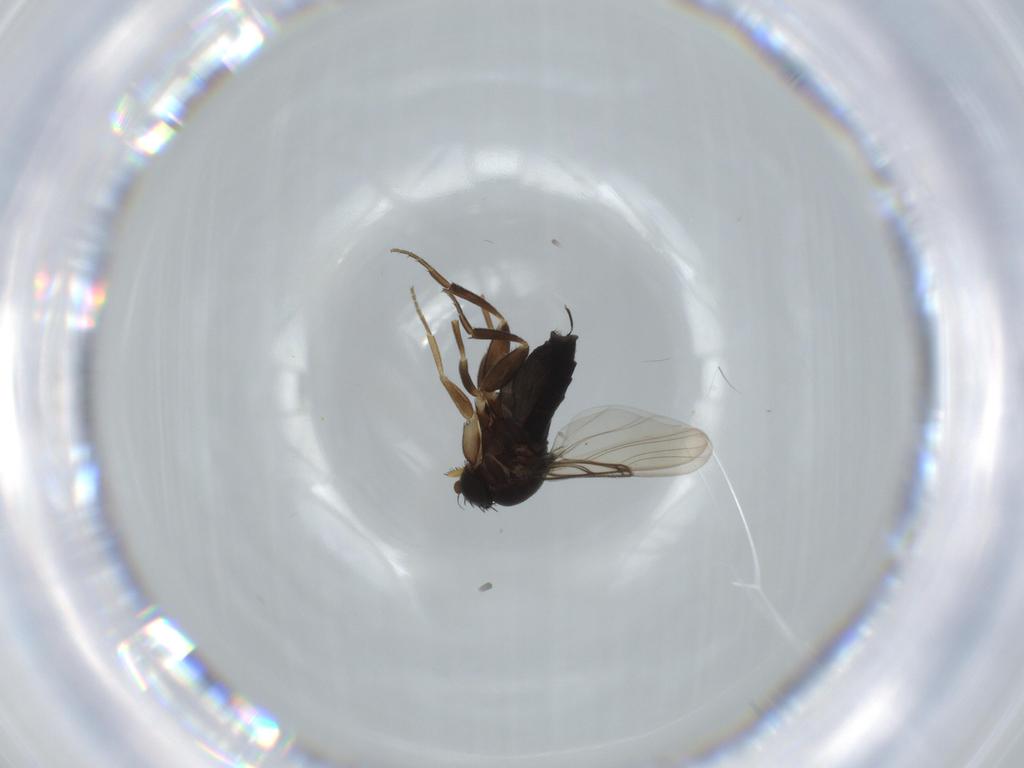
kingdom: Animalia
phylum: Arthropoda
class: Insecta
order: Diptera
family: Phoridae
